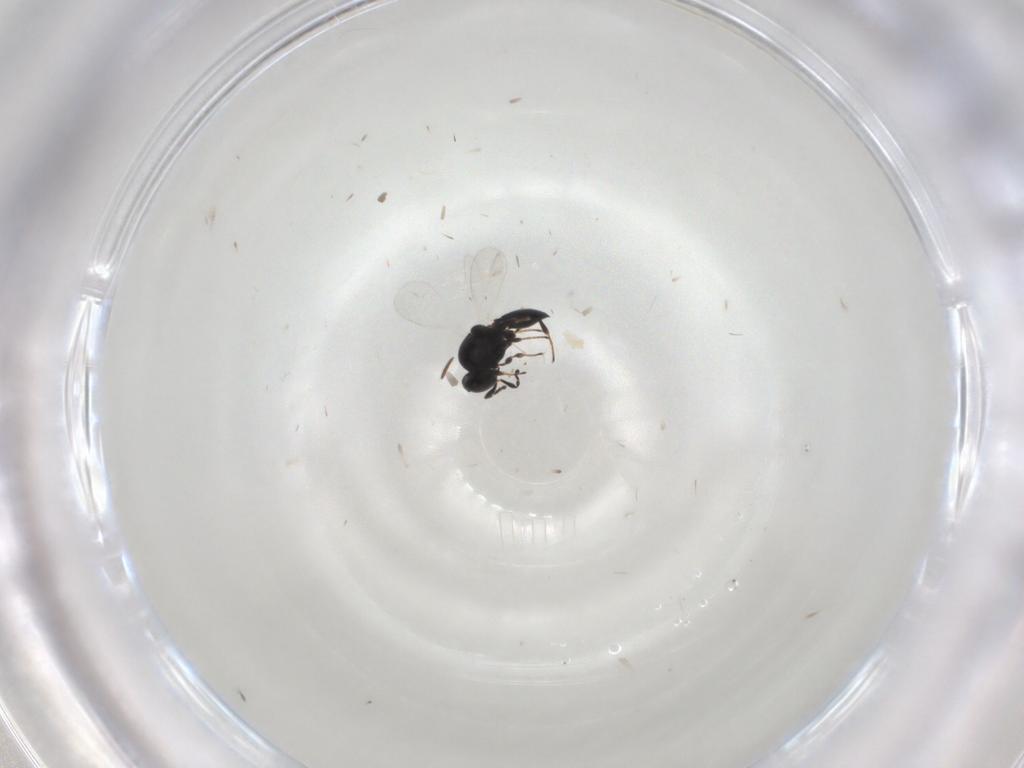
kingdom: Animalia
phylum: Arthropoda
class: Insecta
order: Hymenoptera
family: Dryinidae
